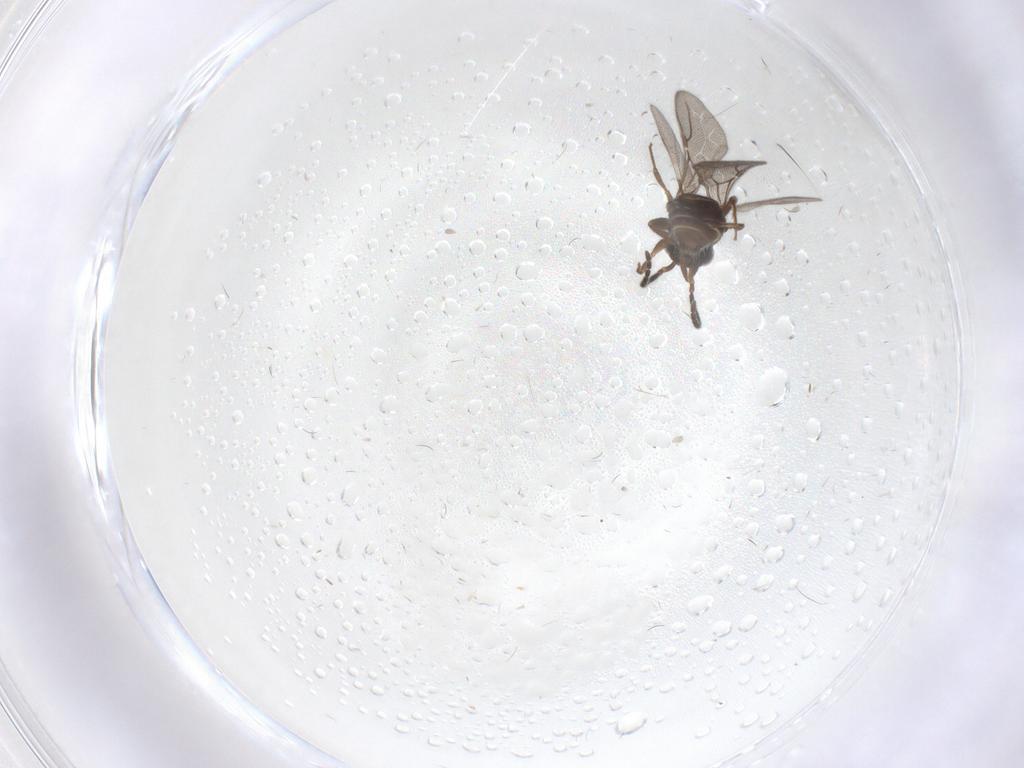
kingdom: Animalia
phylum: Arthropoda
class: Insecta
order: Hymenoptera
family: Bethylidae
